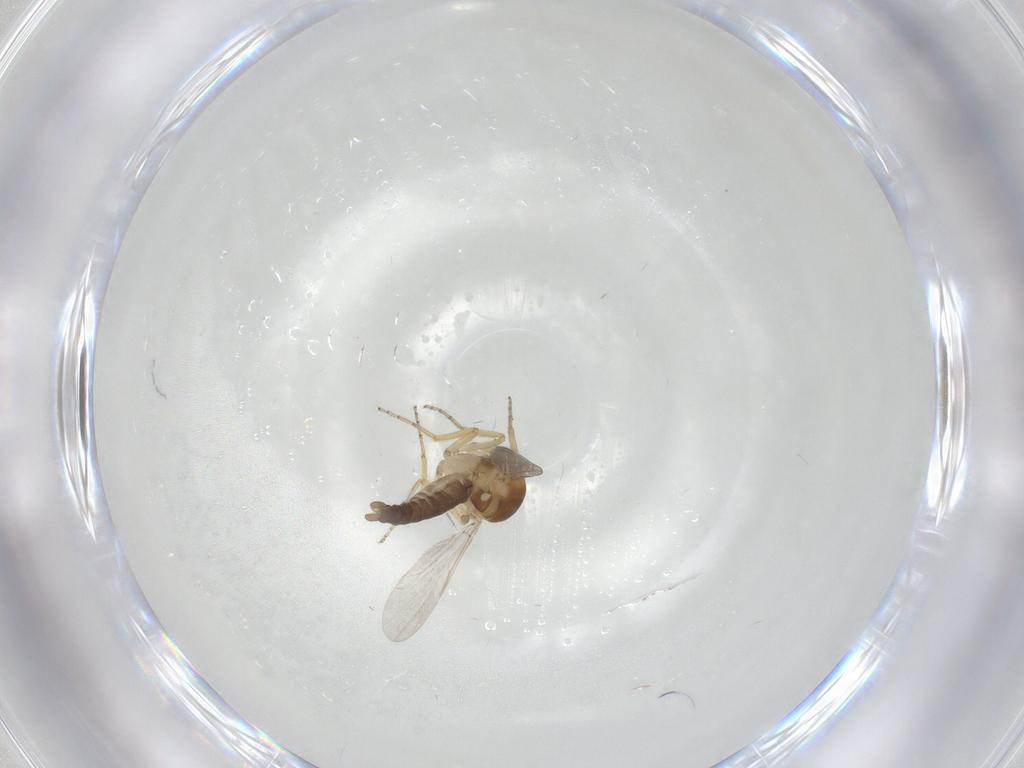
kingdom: Animalia
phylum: Arthropoda
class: Insecta
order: Diptera
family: Ceratopogonidae
